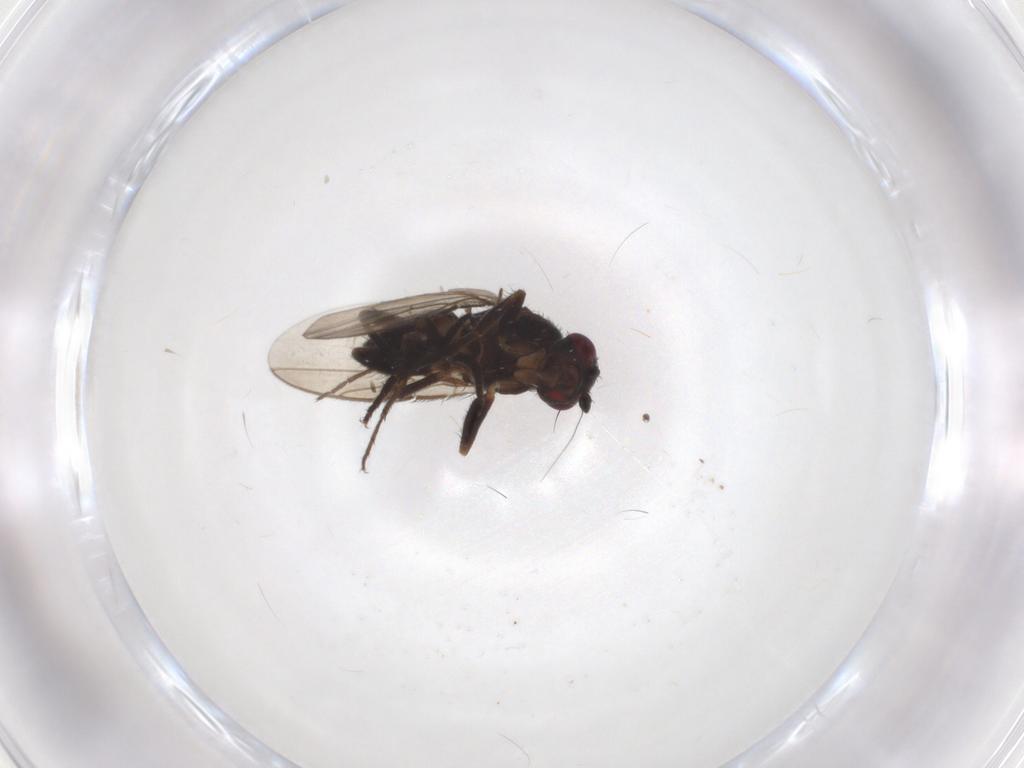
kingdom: Animalia
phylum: Arthropoda
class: Insecta
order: Diptera
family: Sphaeroceridae
